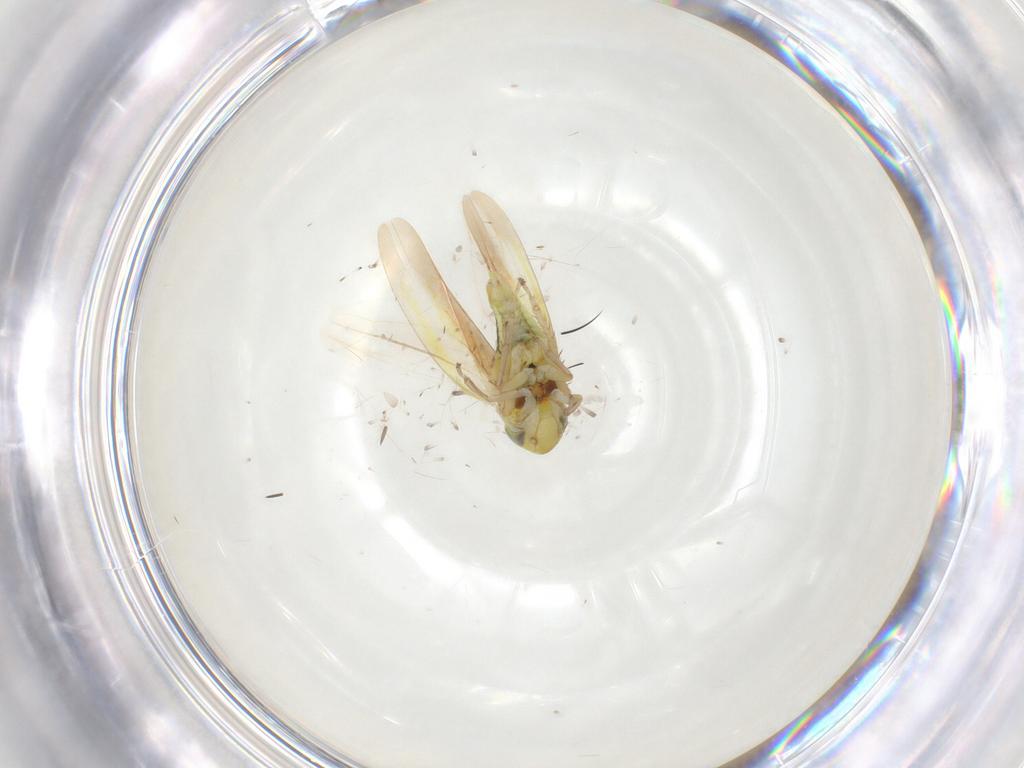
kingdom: Animalia
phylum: Arthropoda
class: Insecta
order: Hemiptera
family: Cicadellidae
